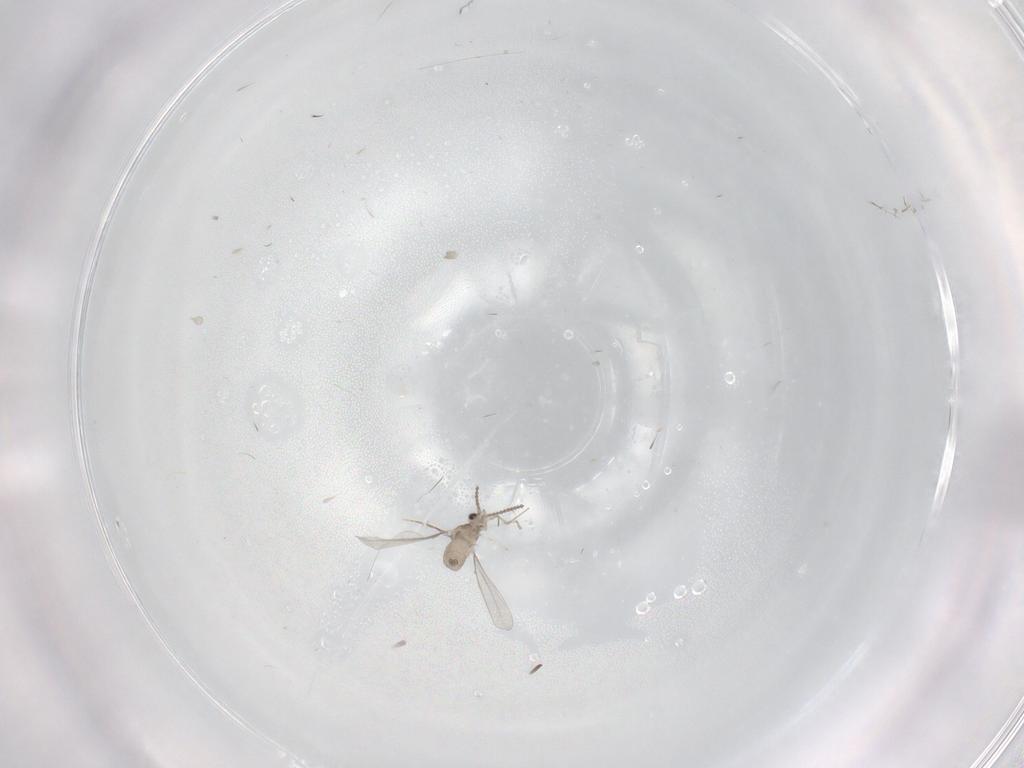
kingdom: Animalia
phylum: Arthropoda
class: Insecta
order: Diptera
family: Cecidomyiidae
